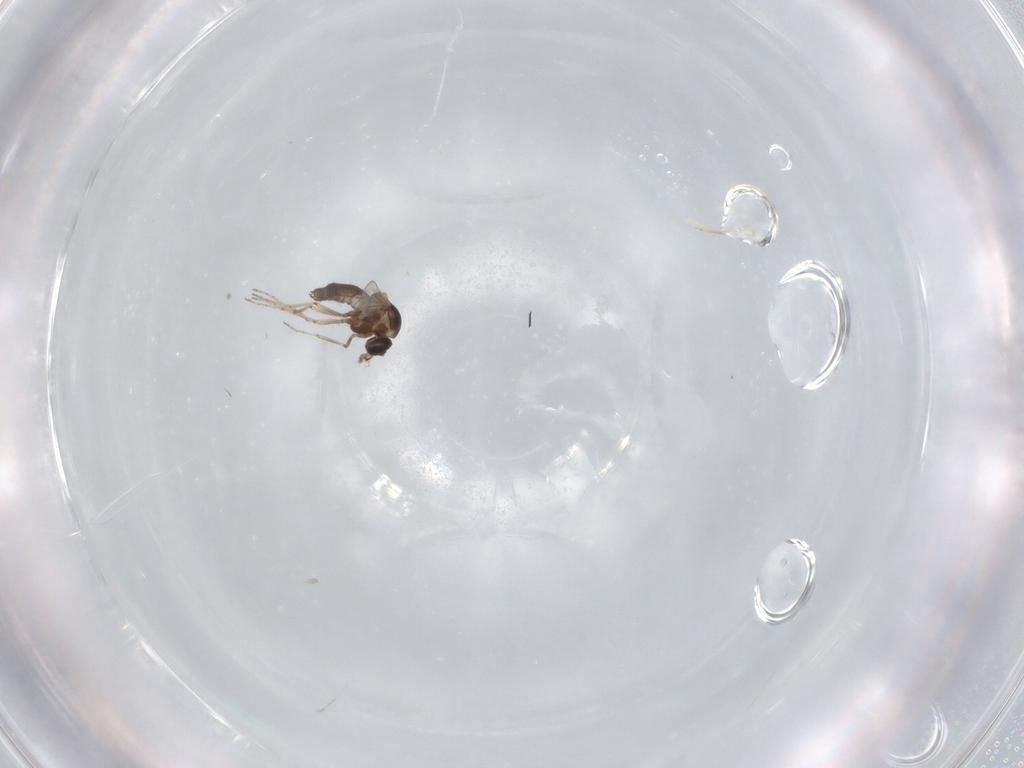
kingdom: Animalia
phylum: Arthropoda
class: Insecta
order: Diptera
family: Ceratopogonidae
